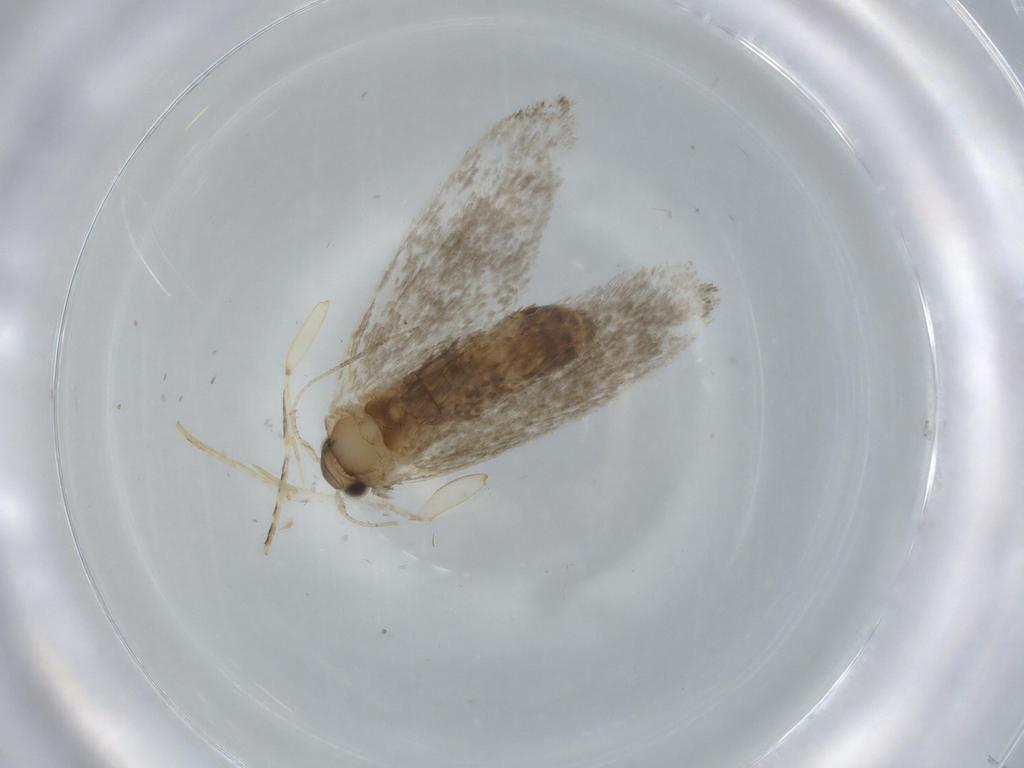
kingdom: Animalia
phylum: Arthropoda
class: Insecta
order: Lepidoptera
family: Tineidae
